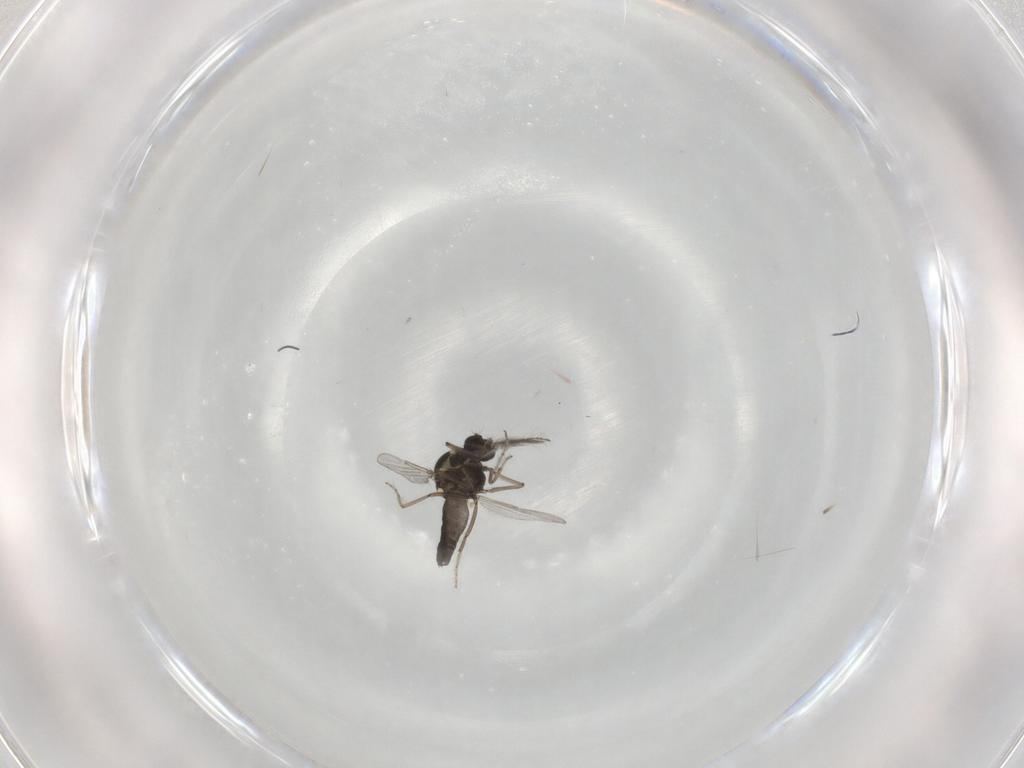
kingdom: Animalia
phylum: Arthropoda
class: Insecta
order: Diptera
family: Ceratopogonidae
